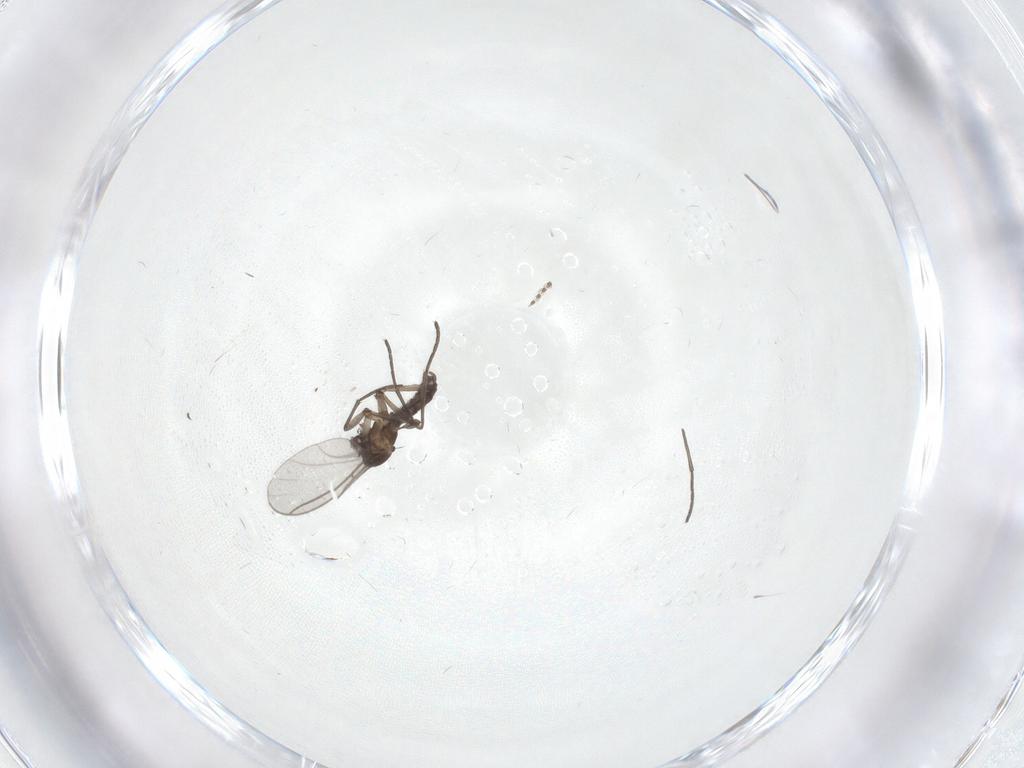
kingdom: Animalia
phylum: Arthropoda
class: Insecta
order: Diptera
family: Cecidomyiidae
